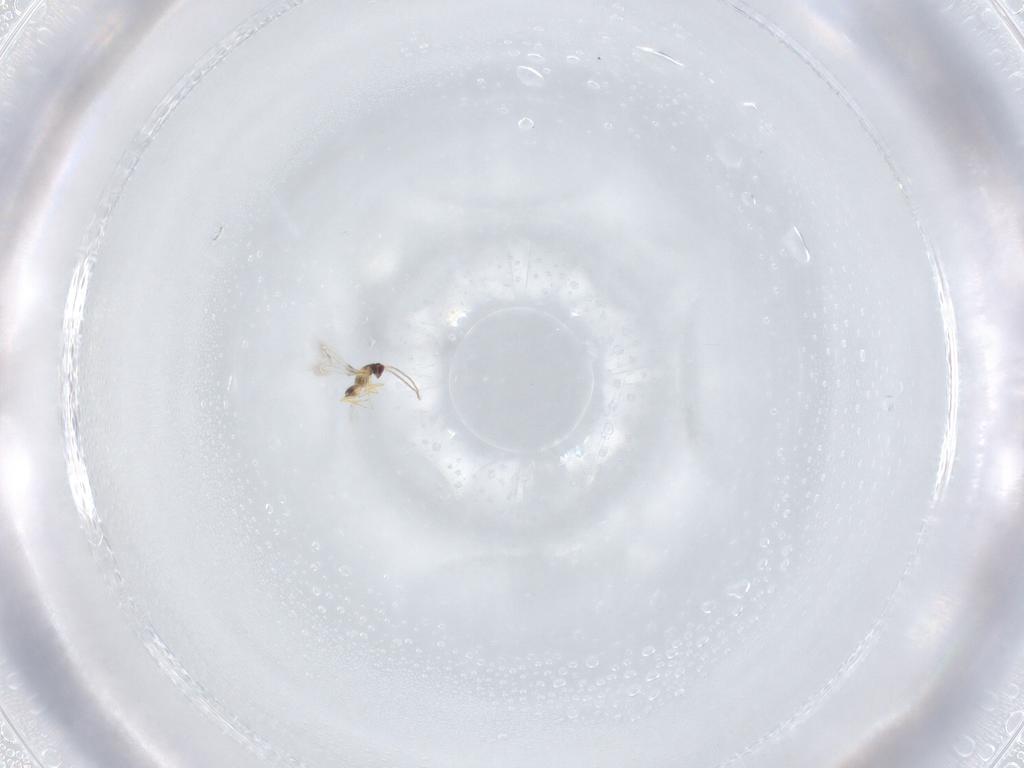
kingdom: Animalia
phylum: Arthropoda
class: Insecta
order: Hymenoptera
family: Mymaridae
